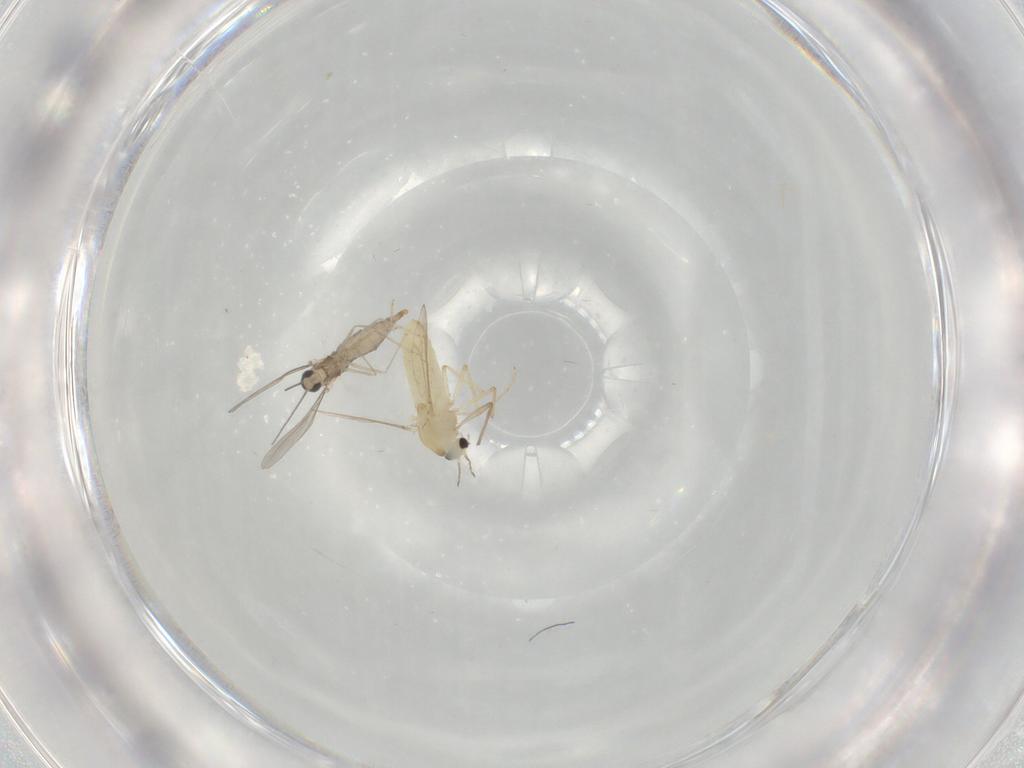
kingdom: Animalia
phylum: Arthropoda
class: Insecta
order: Diptera
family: Chironomidae
